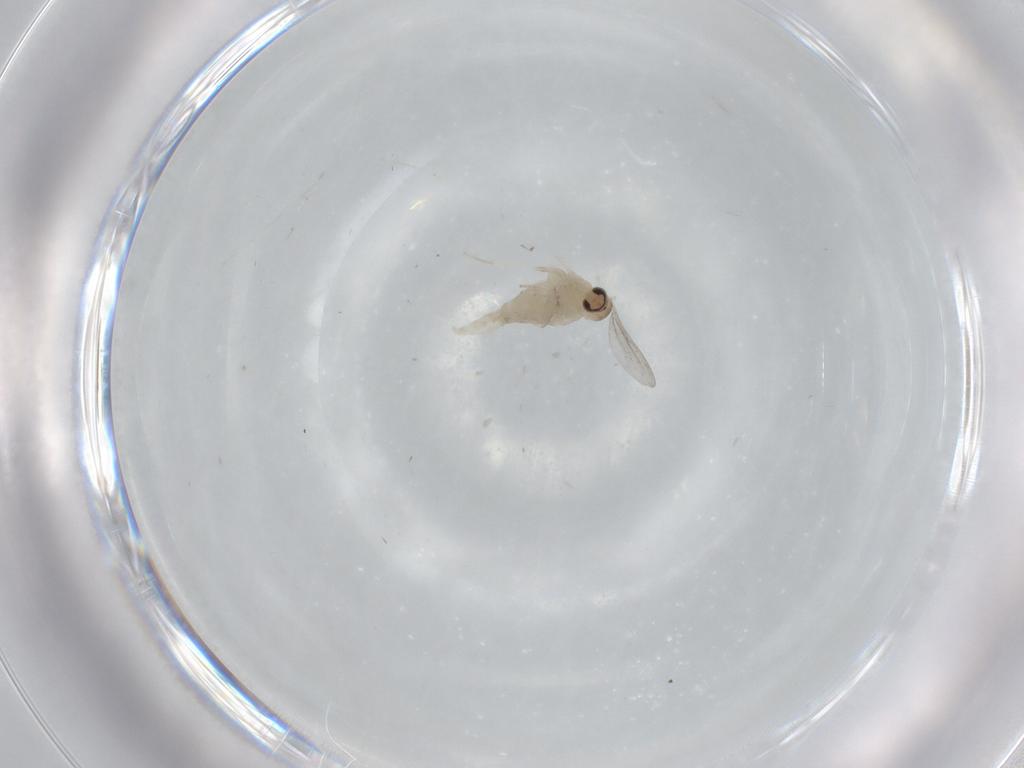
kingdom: Animalia
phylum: Arthropoda
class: Insecta
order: Diptera
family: Cecidomyiidae
